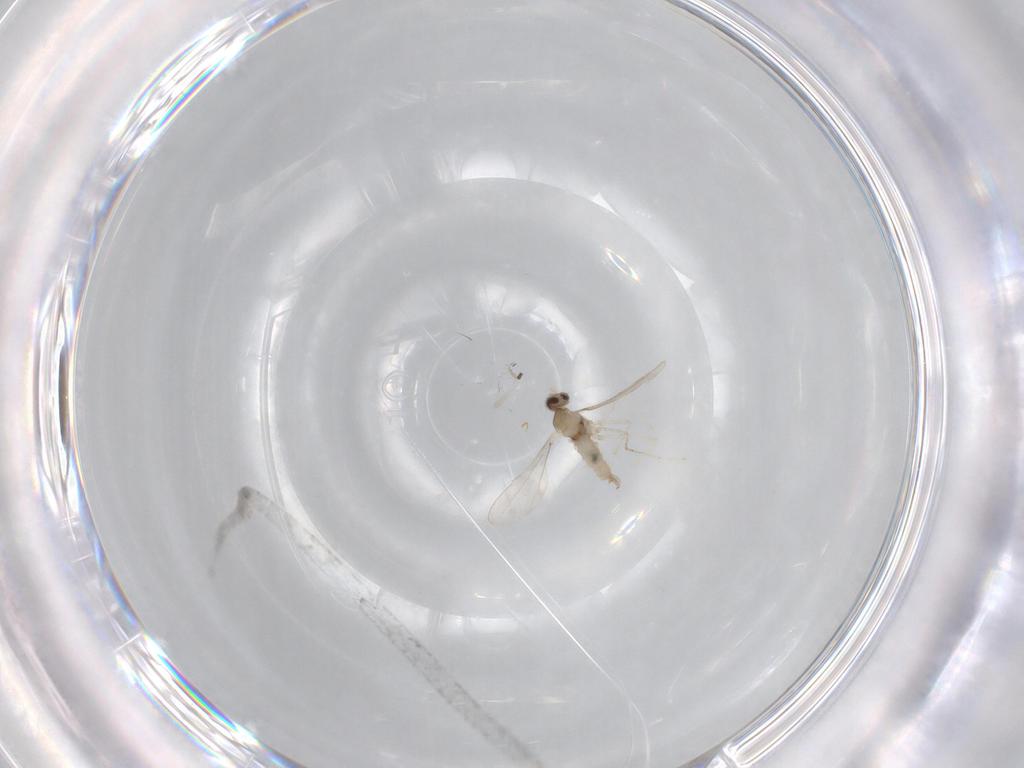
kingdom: Animalia
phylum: Arthropoda
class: Insecta
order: Diptera
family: Cecidomyiidae
